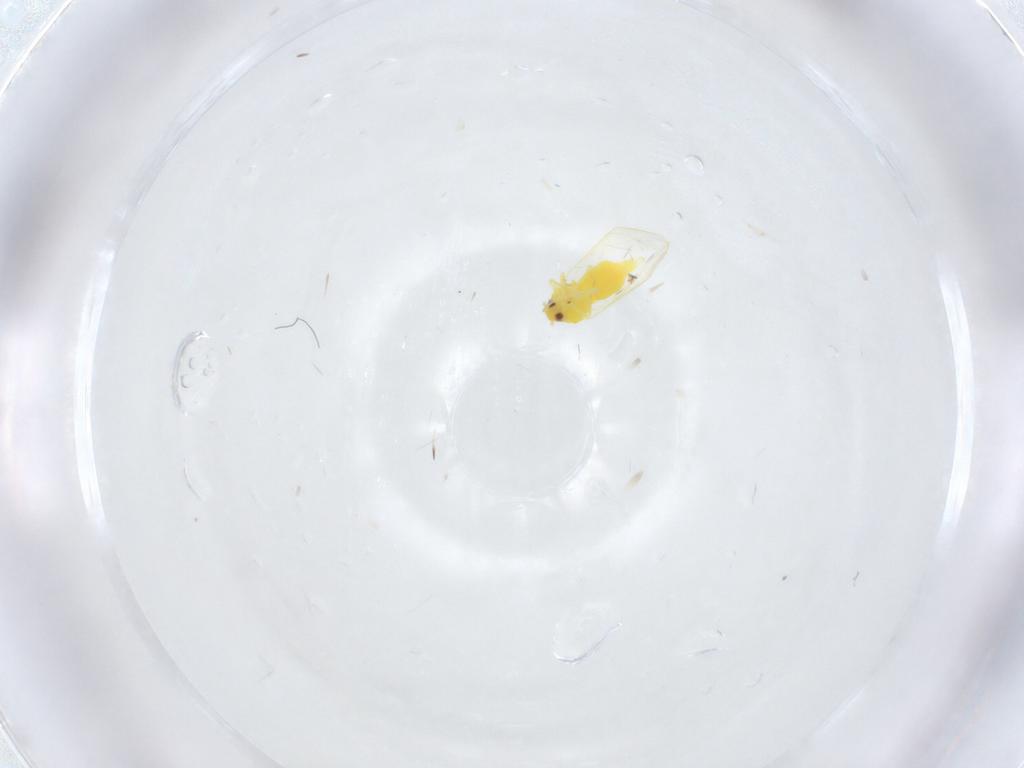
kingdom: Animalia
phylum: Arthropoda
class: Insecta
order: Hemiptera
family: Aleyrodidae
